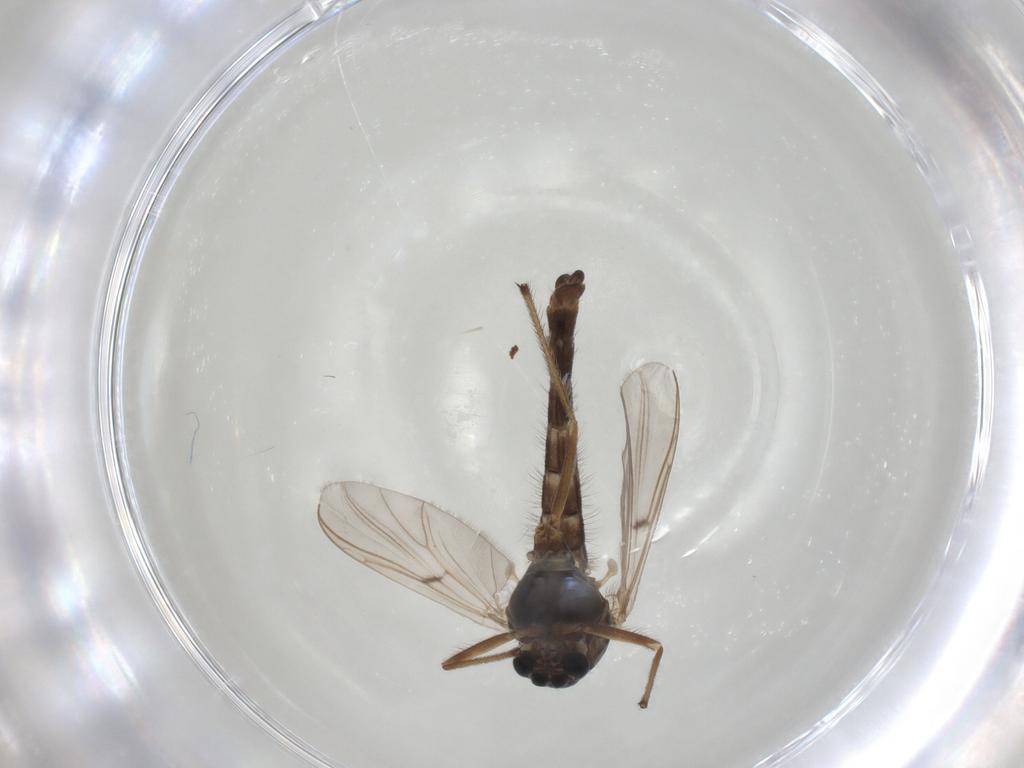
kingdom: Animalia
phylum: Arthropoda
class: Insecta
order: Diptera
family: Chironomidae
